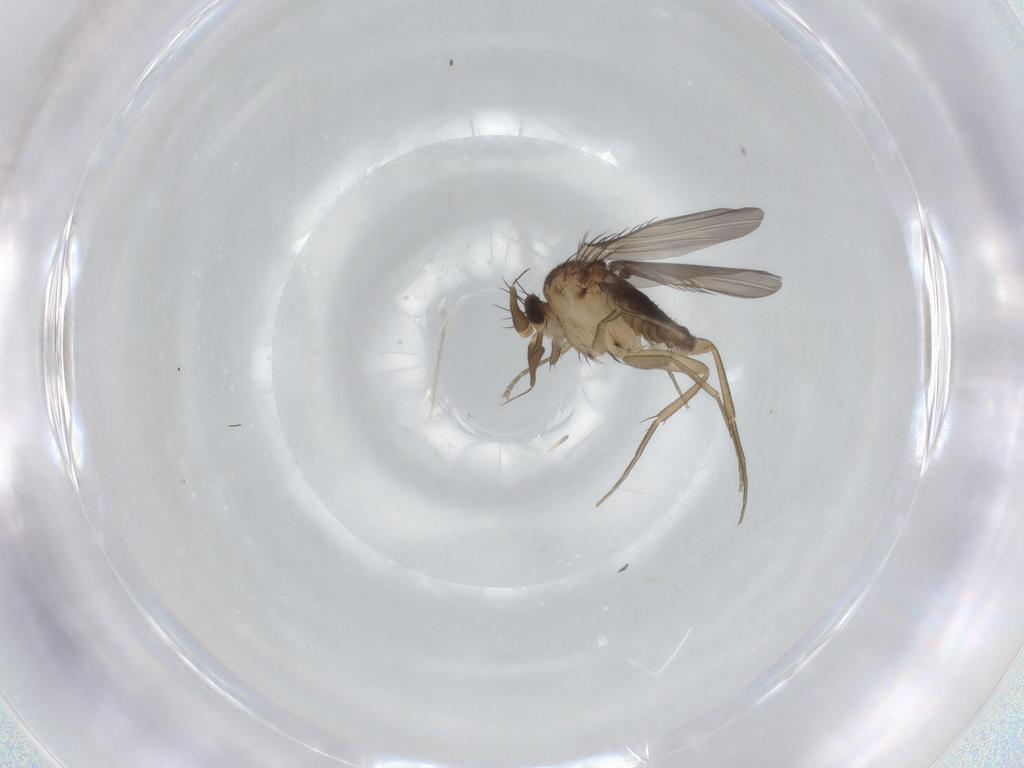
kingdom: Animalia
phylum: Arthropoda
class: Insecta
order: Diptera
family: Phoridae
